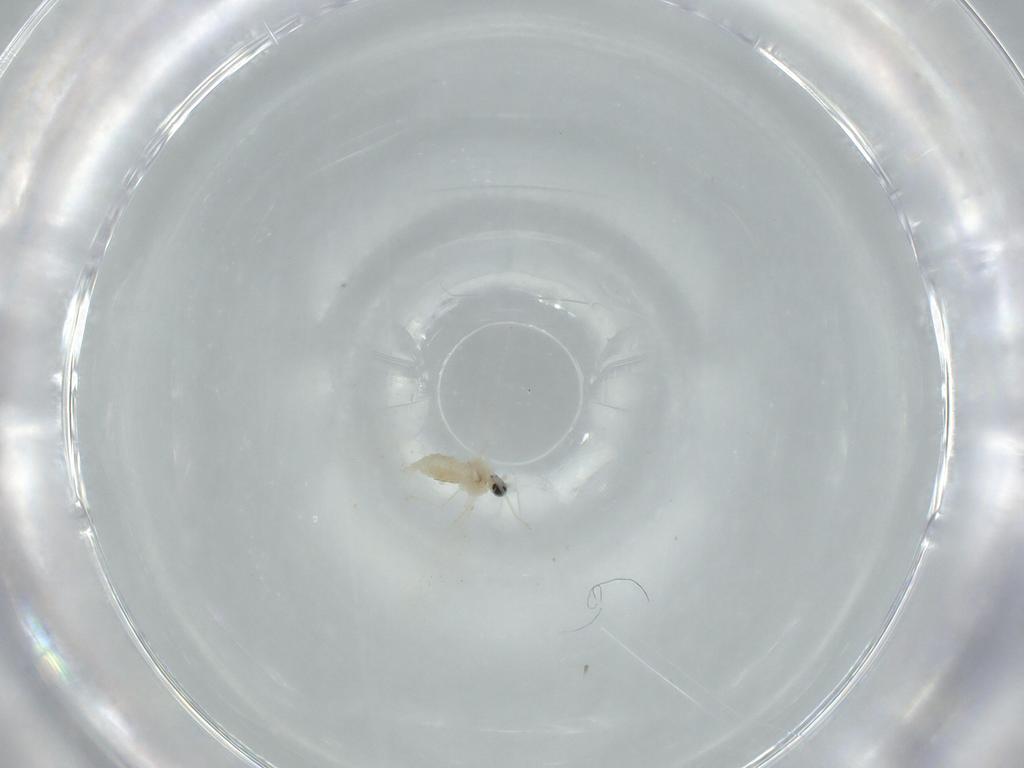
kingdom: Animalia
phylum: Arthropoda
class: Insecta
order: Diptera
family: Cecidomyiidae
